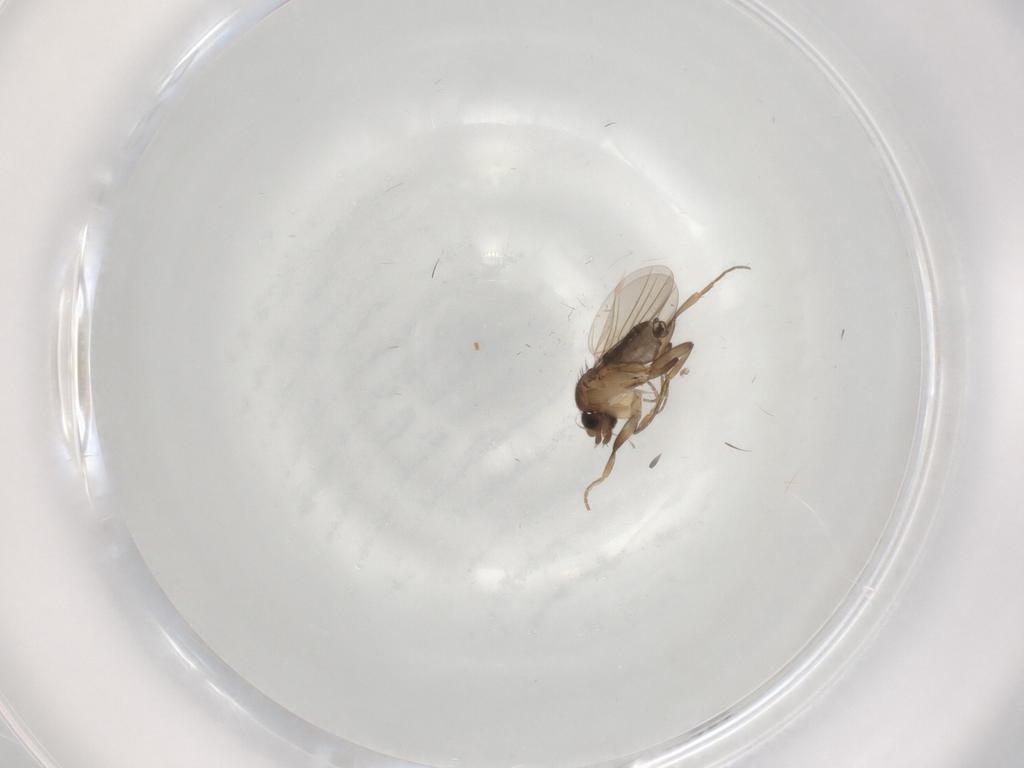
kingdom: Animalia
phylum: Arthropoda
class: Insecta
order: Diptera
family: Phoridae
